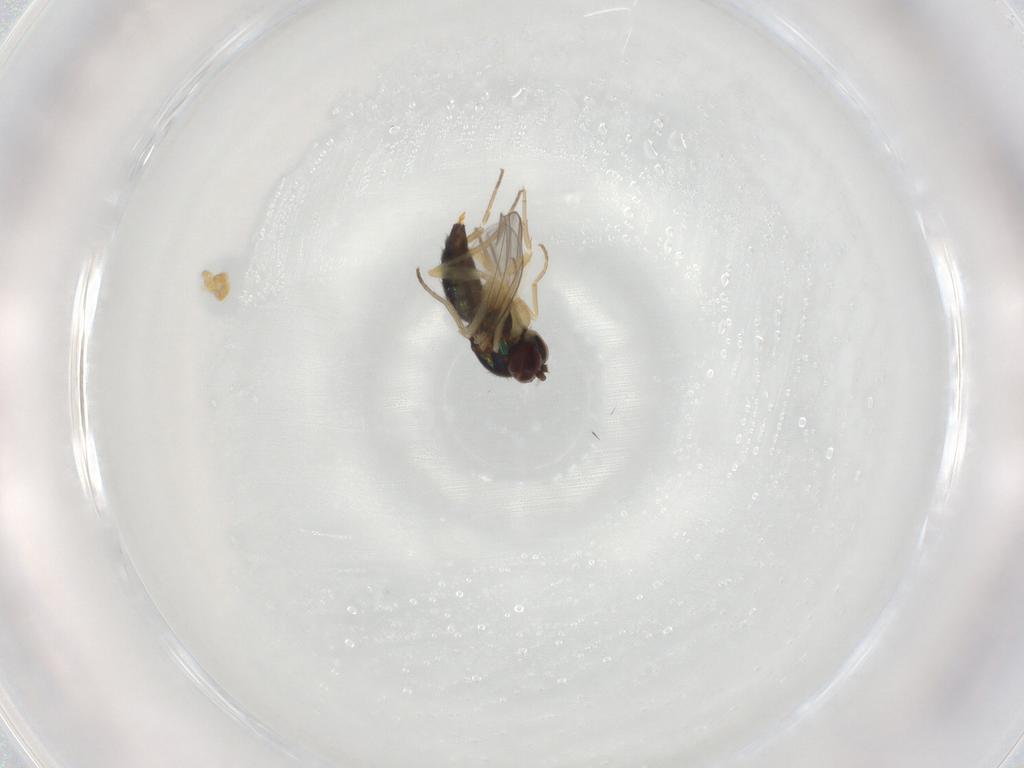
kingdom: Animalia
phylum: Arthropoda
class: Insecta
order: Diptera
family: Dolichopodidae
